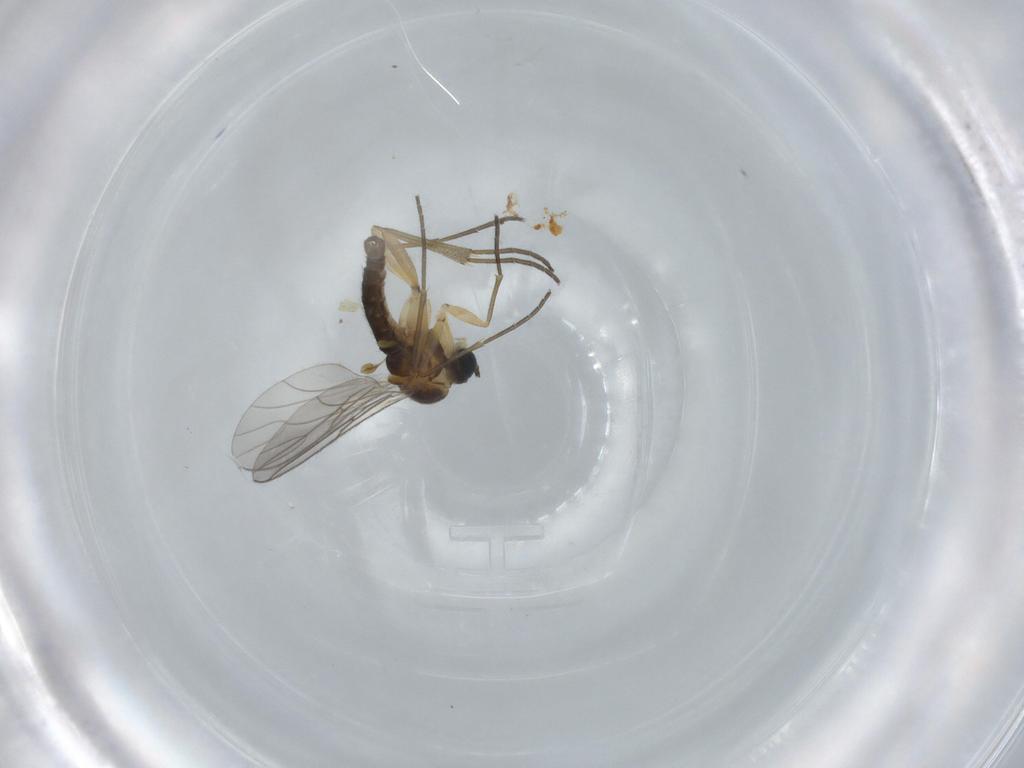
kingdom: Animalia
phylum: Arthropoda
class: Insecta
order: Diptera
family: Sciaridae
